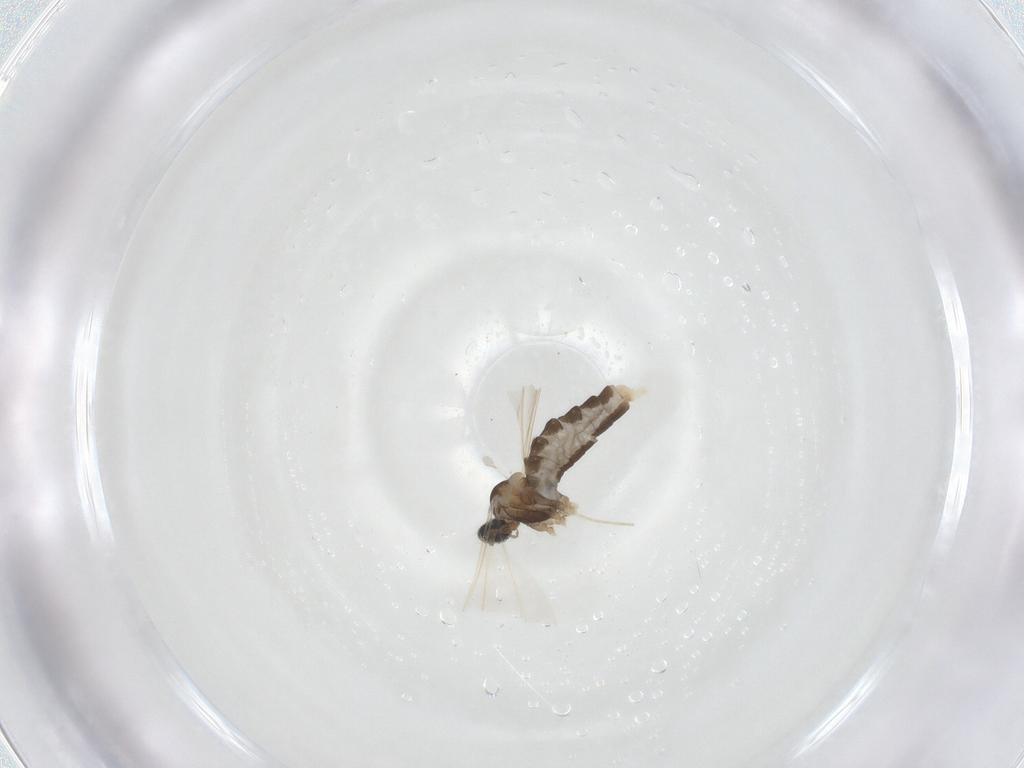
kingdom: Animalia
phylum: Arthropoda
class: Insecta
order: Diptera
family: Cecidomyiidae
